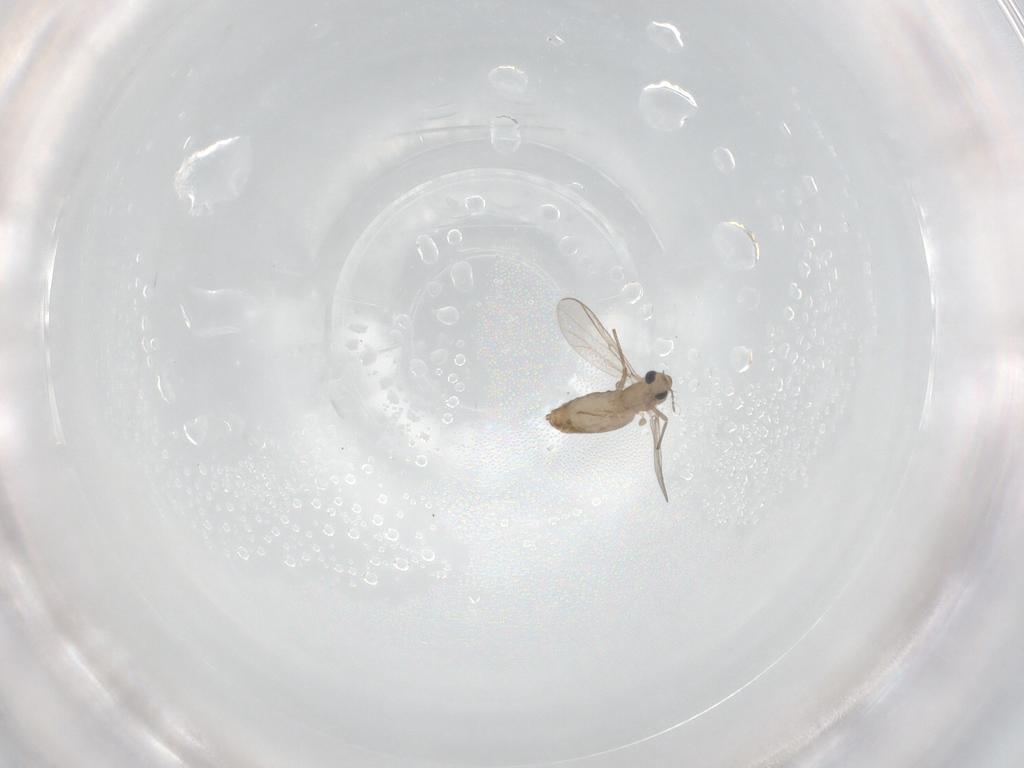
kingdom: Animalia
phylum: Arthropoda
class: Insecta
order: Diptera
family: Chironomidae
